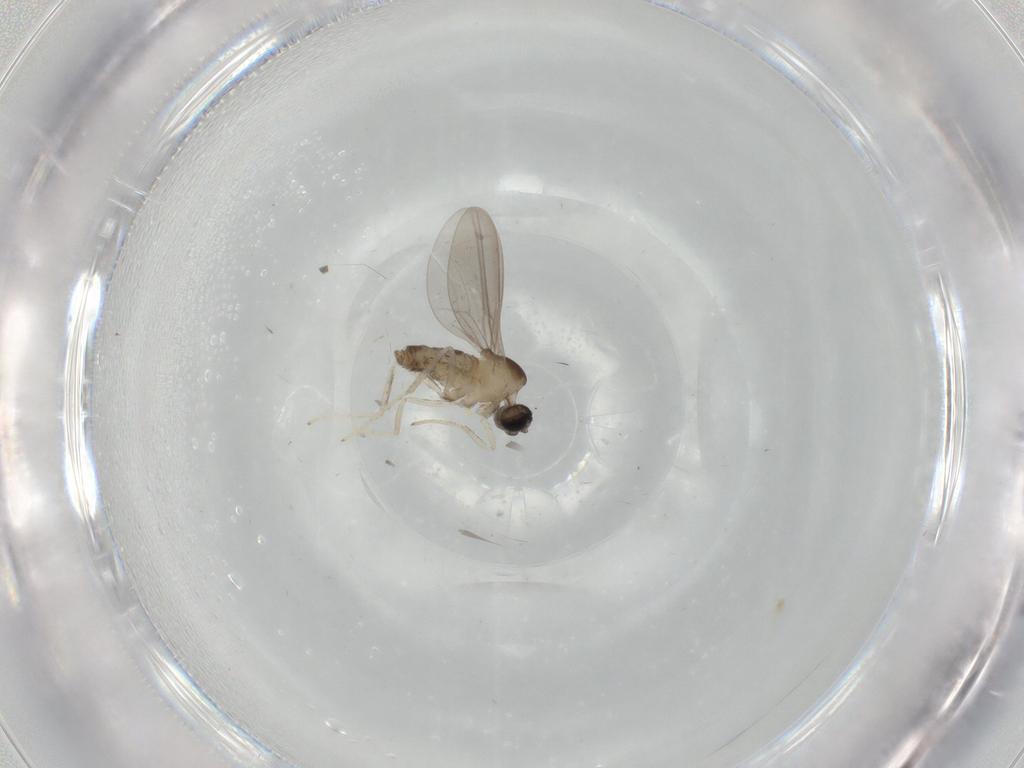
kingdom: Animalia
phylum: Arthropoda
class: Insecta
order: Diptera
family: Cecidomyiidae
